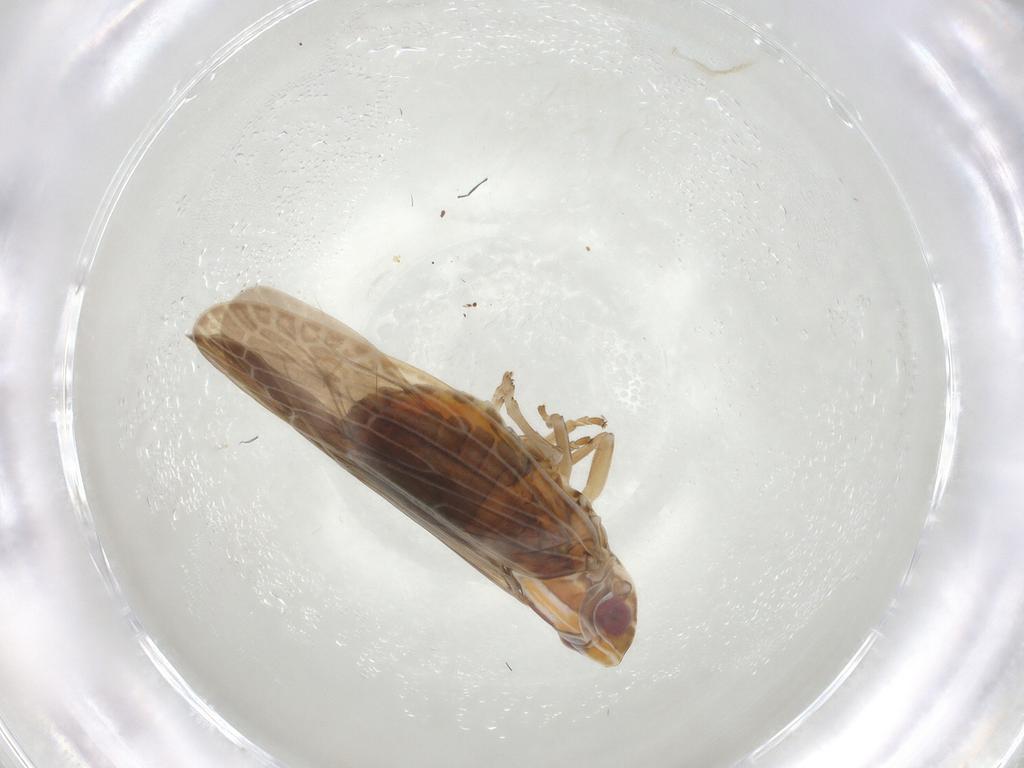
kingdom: Animalia
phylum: Arthropoda
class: Insecta
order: Hemiptera
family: Achilidae
